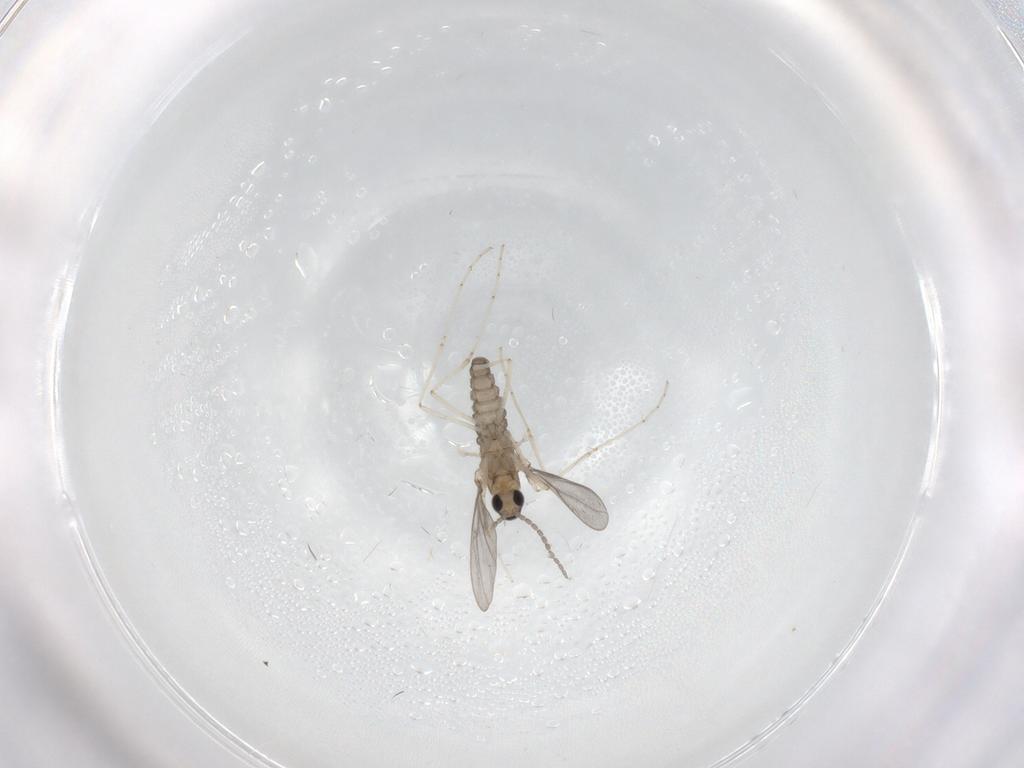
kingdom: Animalia
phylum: Arthropoda
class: Insecta
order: Diptera
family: Cecidomyiidae
